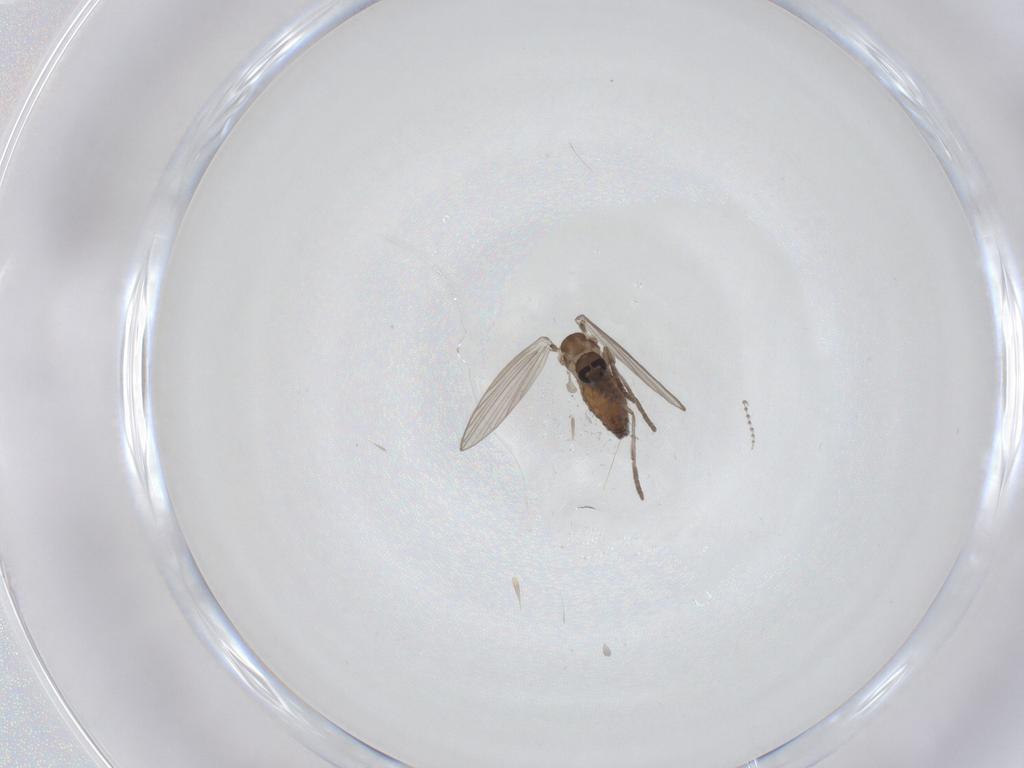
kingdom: Animalia
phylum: Arthropoda
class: Insecta
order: Diptera
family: Psychodidae
